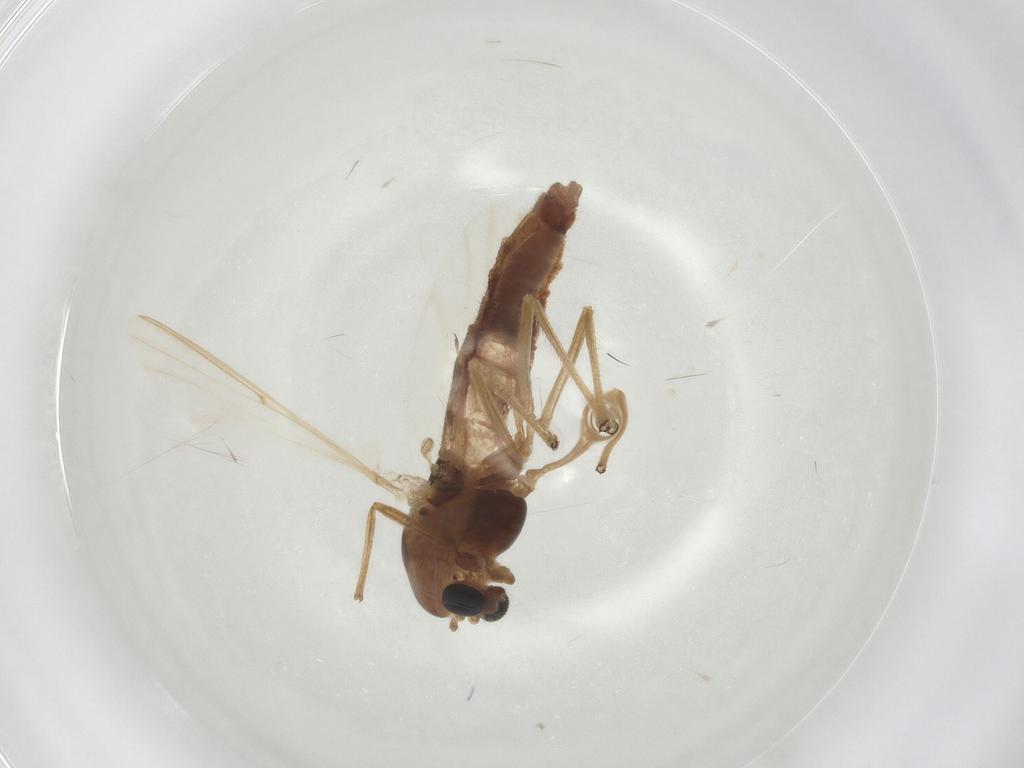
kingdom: Animalia
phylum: Arthropoda
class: Insecta
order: Diptera
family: Chironomidae
